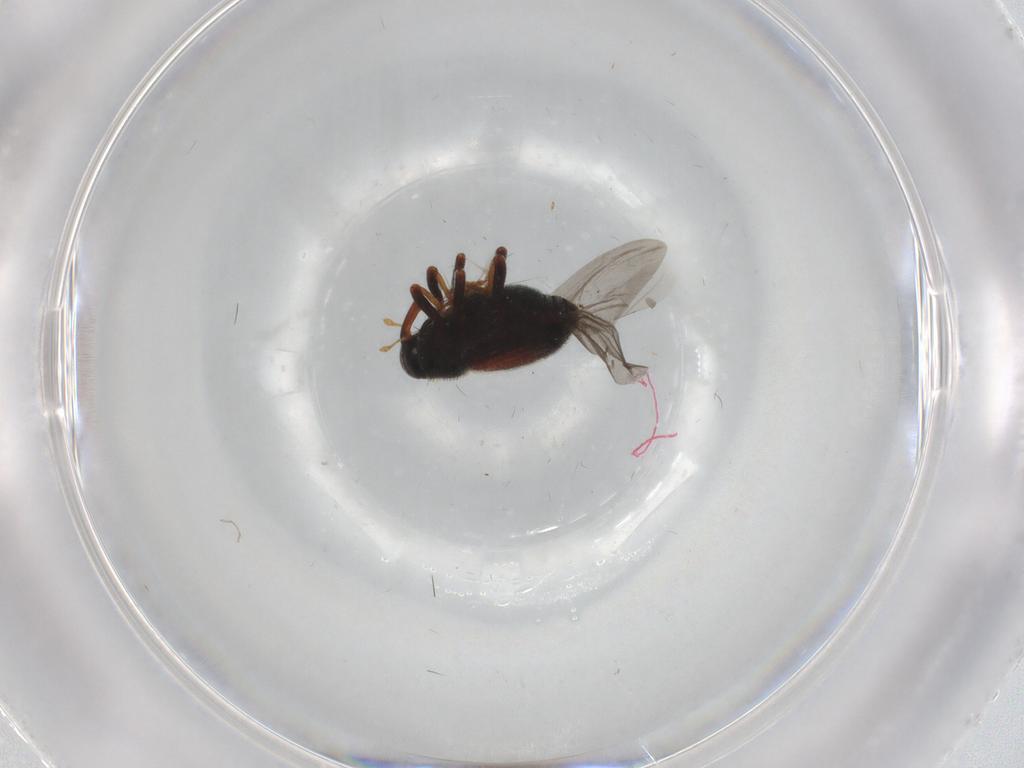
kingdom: Animalia
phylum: Arthropoda
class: Insecta
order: Coleoptera
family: Curculionidae
